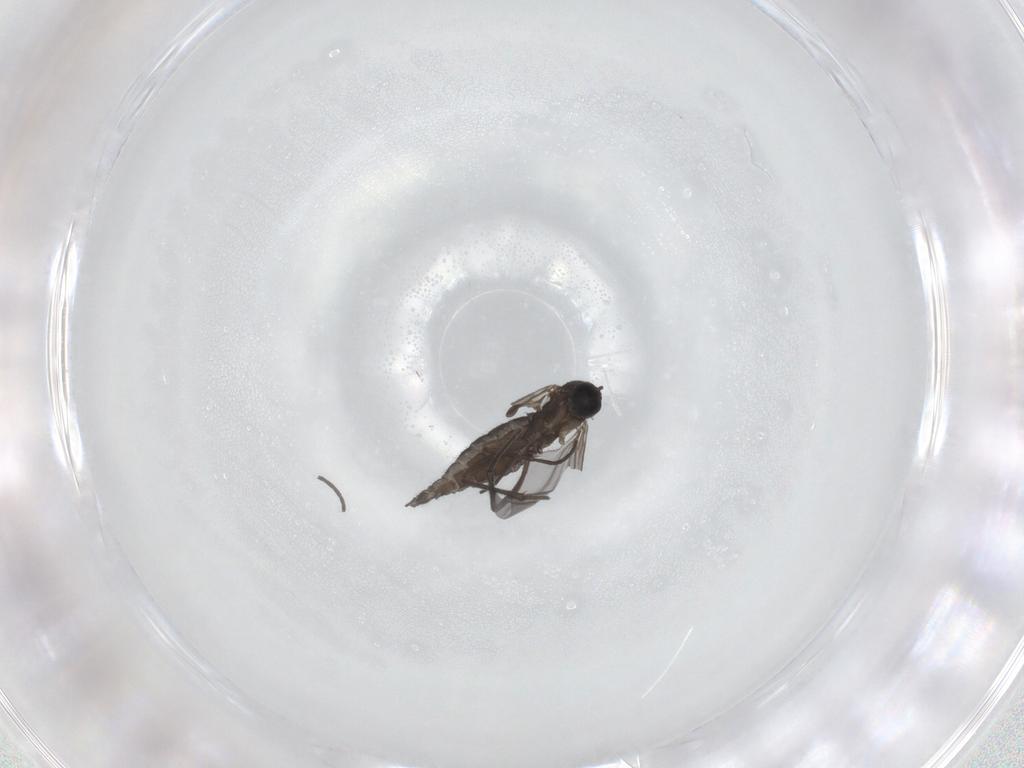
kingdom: Animalia
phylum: Arthropoda
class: Insecta
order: Diptera
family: Sciaridae
